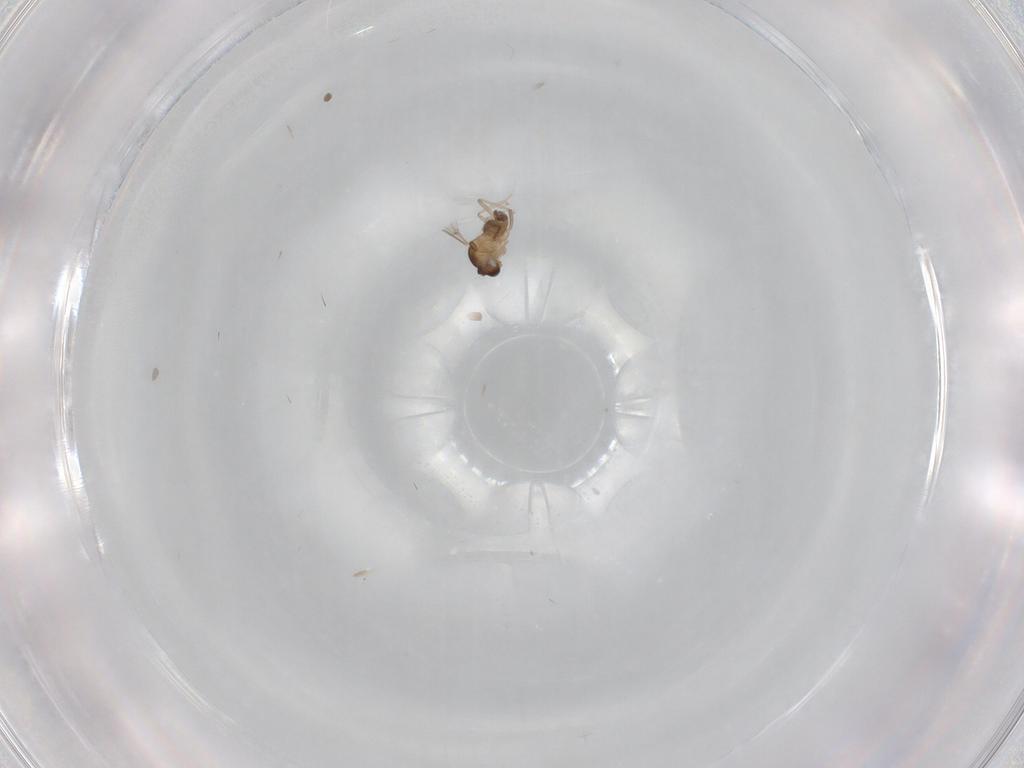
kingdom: Animalia
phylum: Arthropoda
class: Insecta
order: Diptera
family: Cecidomyiidae
